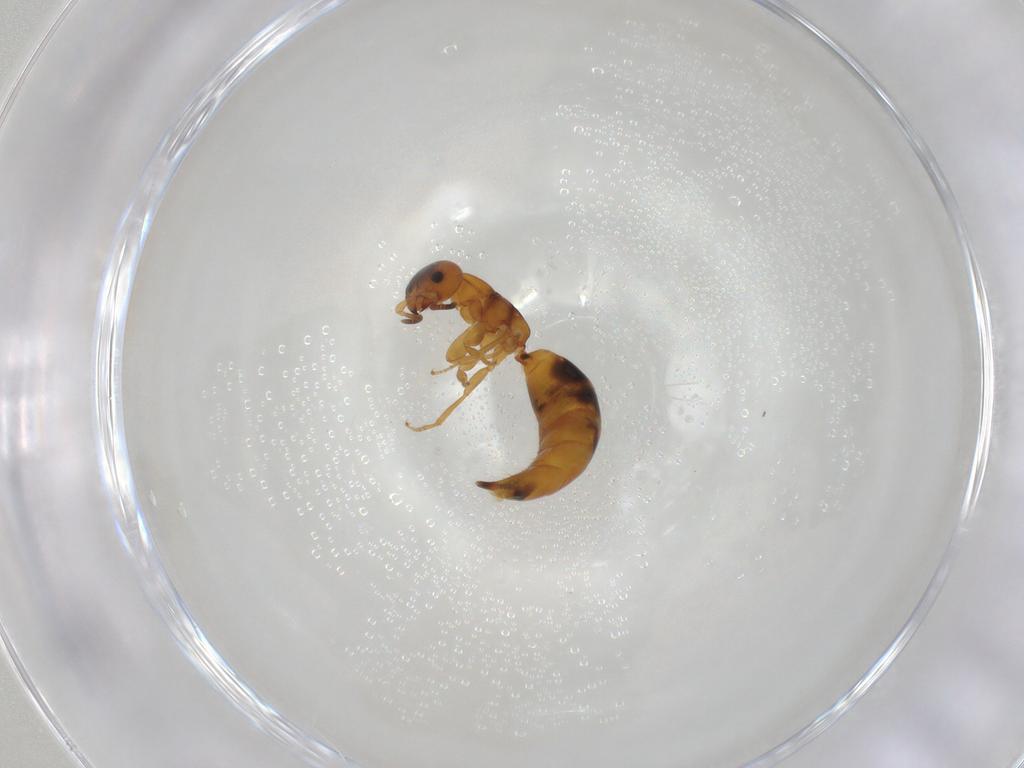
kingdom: Animalia
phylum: Arthropoda
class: Insecta
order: Hymenoptera
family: Bethylidae
